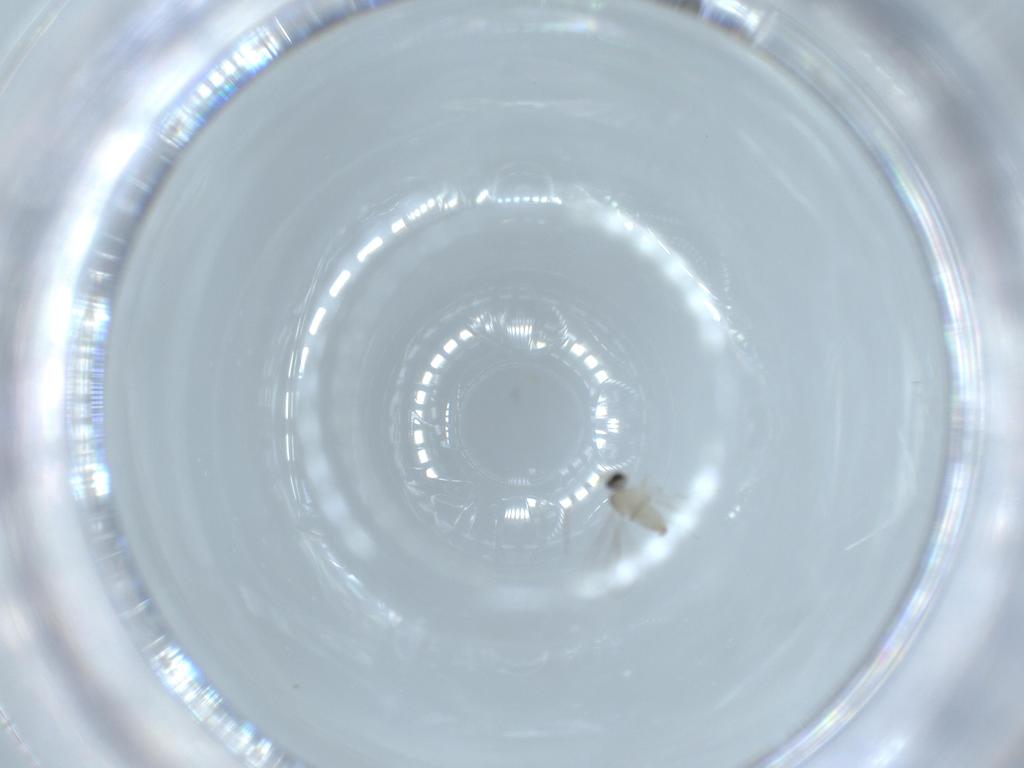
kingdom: Animalia
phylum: Arthropoda
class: Insecta
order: Diptera
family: Cecidomyiidae
